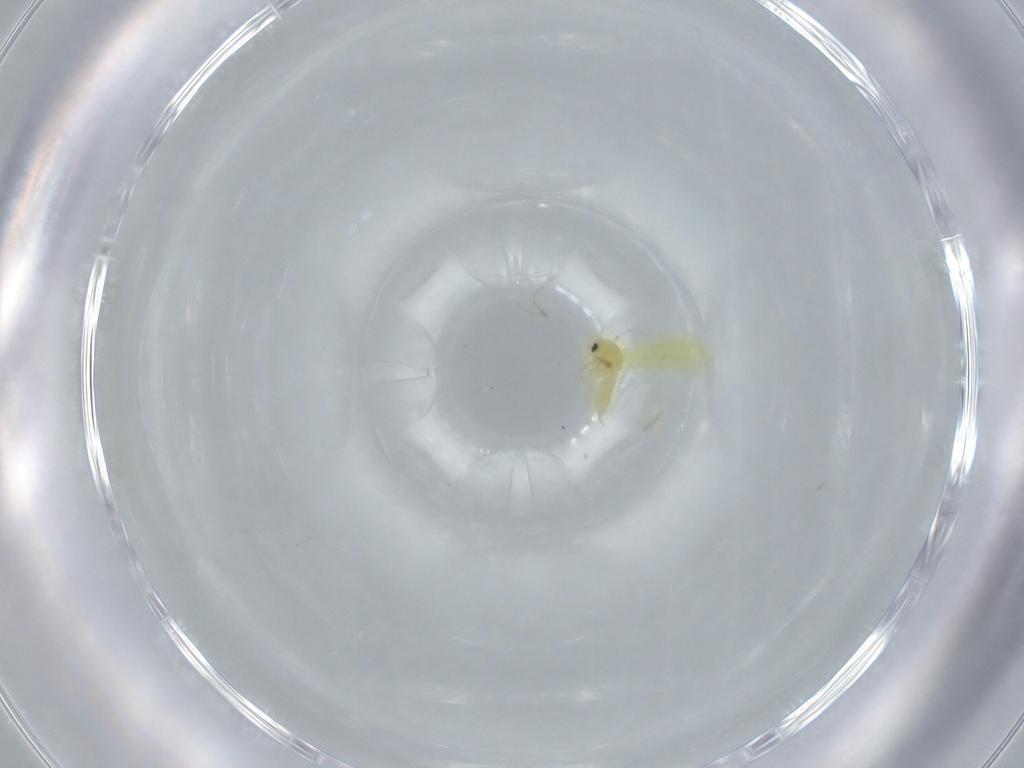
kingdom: Animalia
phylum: Arthropoda
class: Insecta
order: Hemiptera
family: Aleyrodidae
